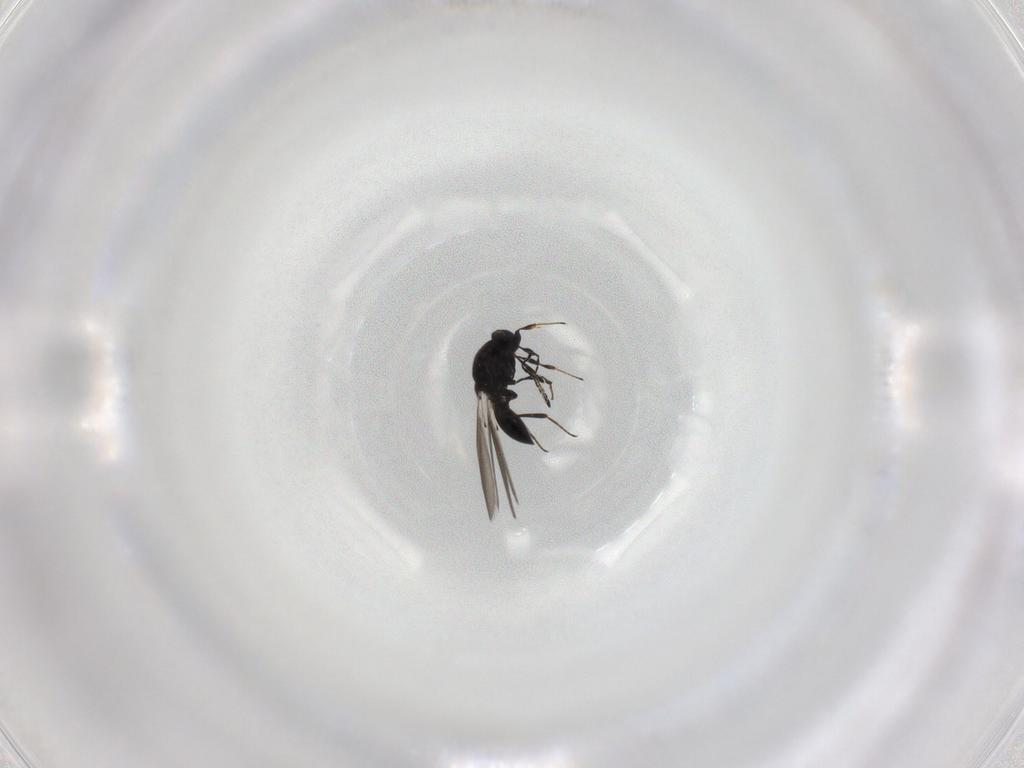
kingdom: Animalia
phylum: Arthropoda
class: Insecta
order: Hymenoptera
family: Platygastridae
